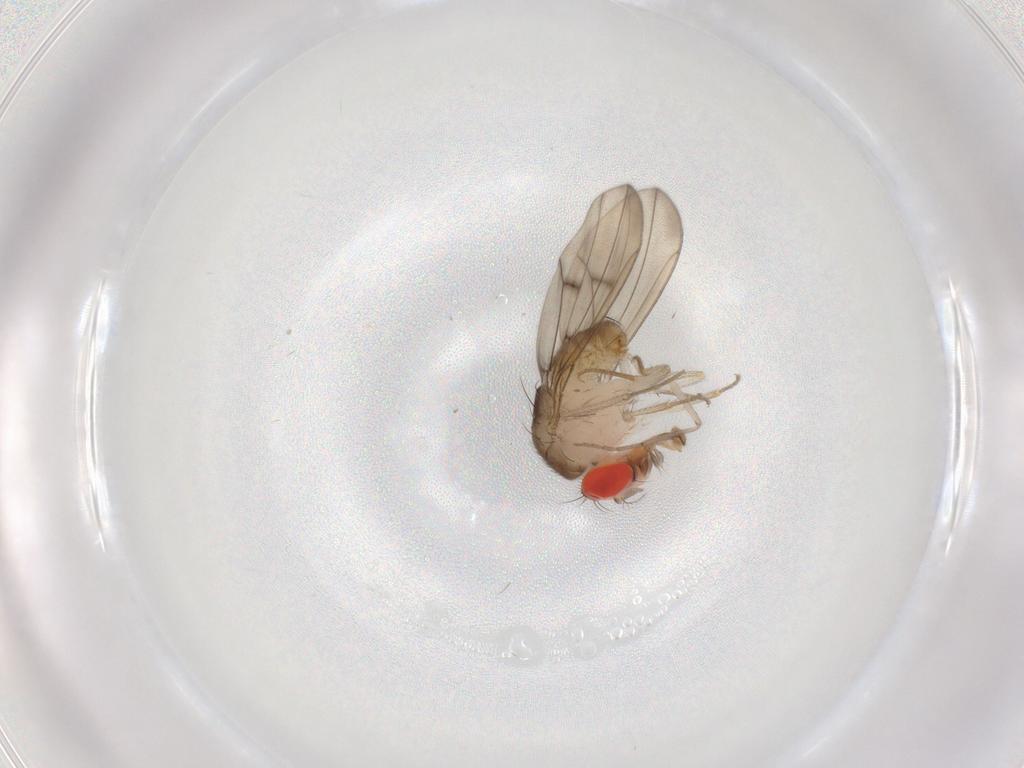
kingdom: Animalia
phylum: Arthropoda
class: Insecta
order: Diptera
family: Drosophilidae
